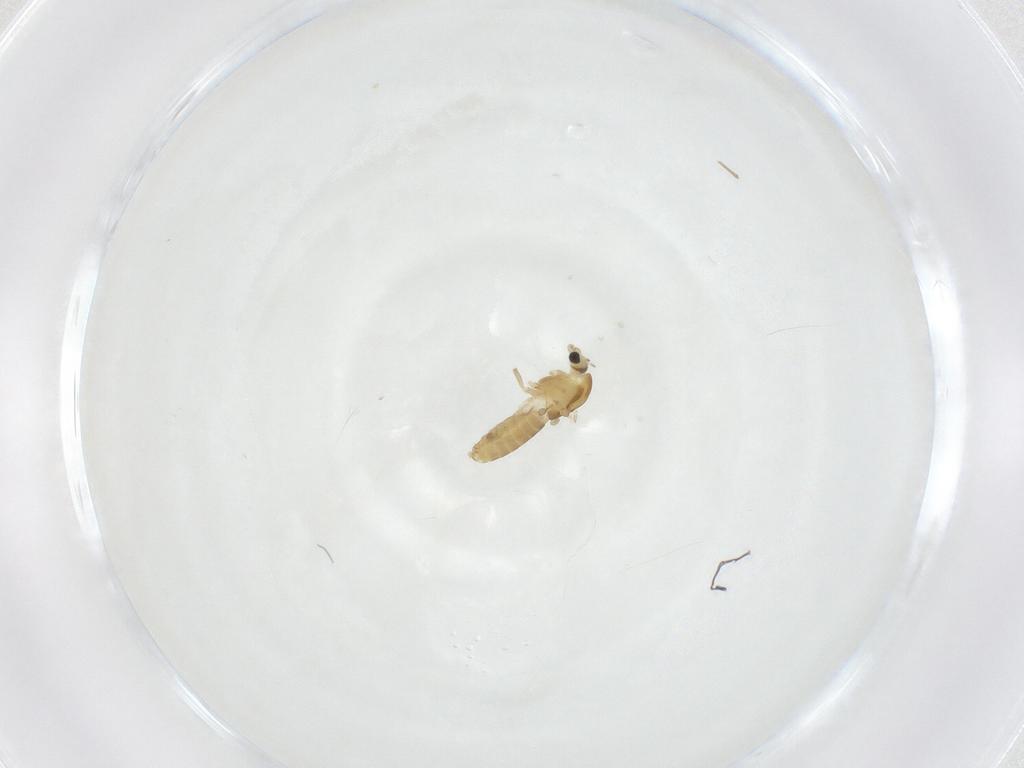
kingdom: Animalia
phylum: Arthropoda
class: Insecta
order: Diptera
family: Chironomidae
